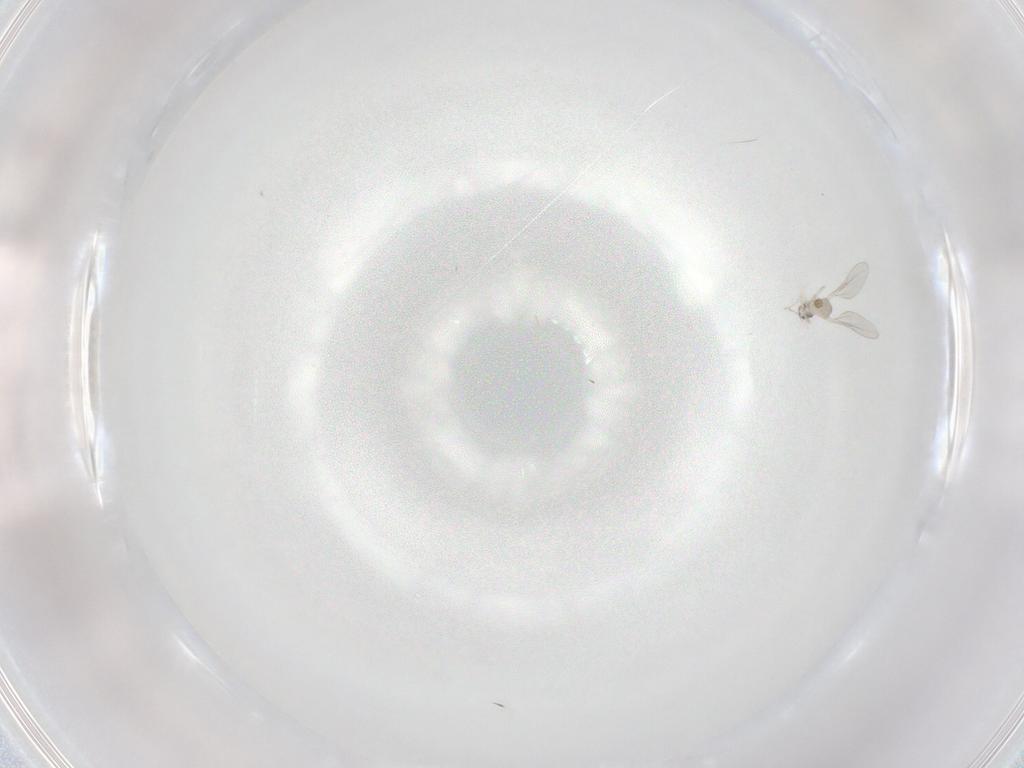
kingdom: Animalia
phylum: Arthropoda
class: Insecta
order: Diptera
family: Cecidomyiidae
